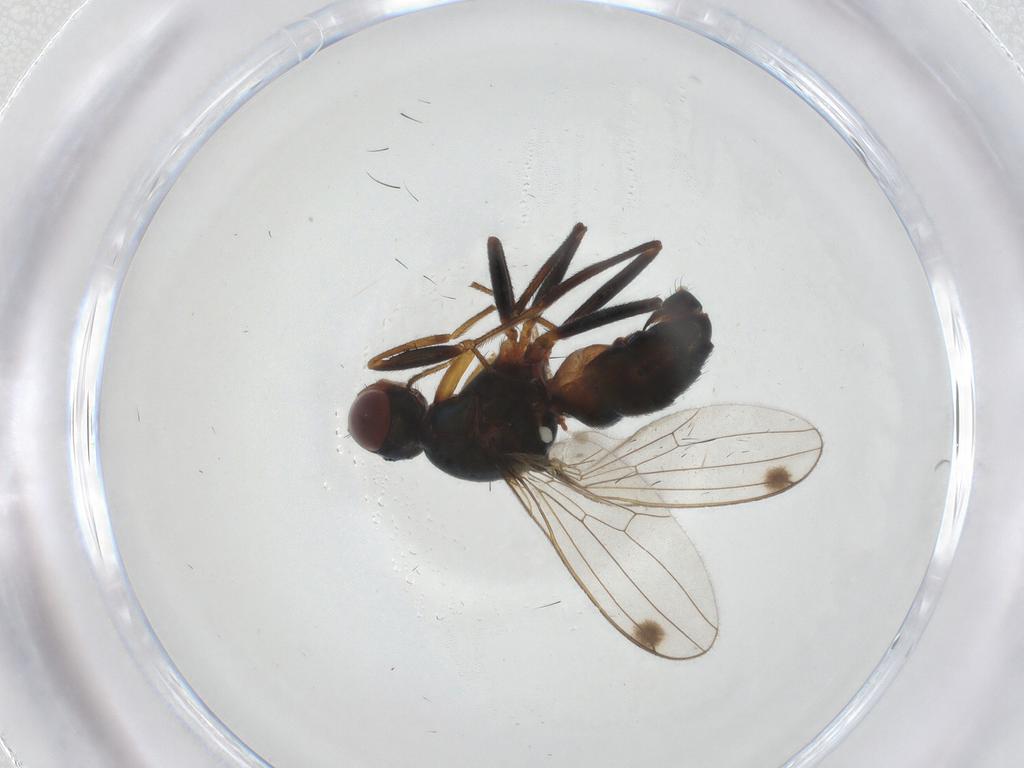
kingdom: Animalia
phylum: Arthropoda
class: Insecta
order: Diptera
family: Sepsidae
